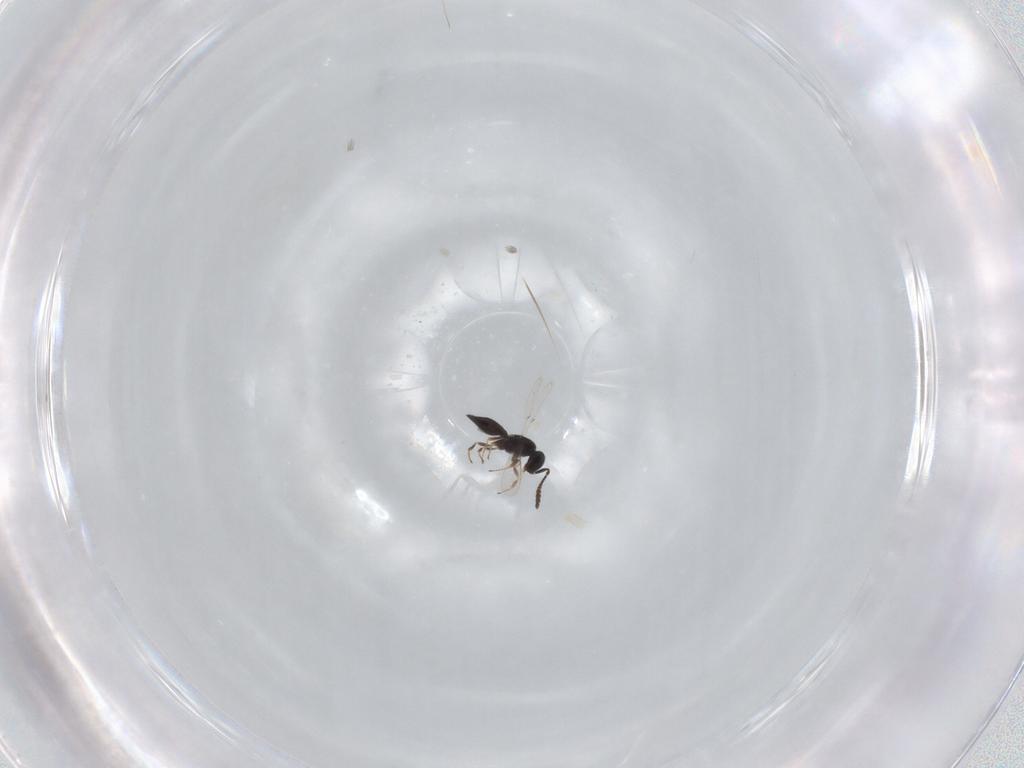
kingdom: Animalia
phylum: Arthropoda
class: Insecta
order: Hymenoptera
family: Scelionidae
